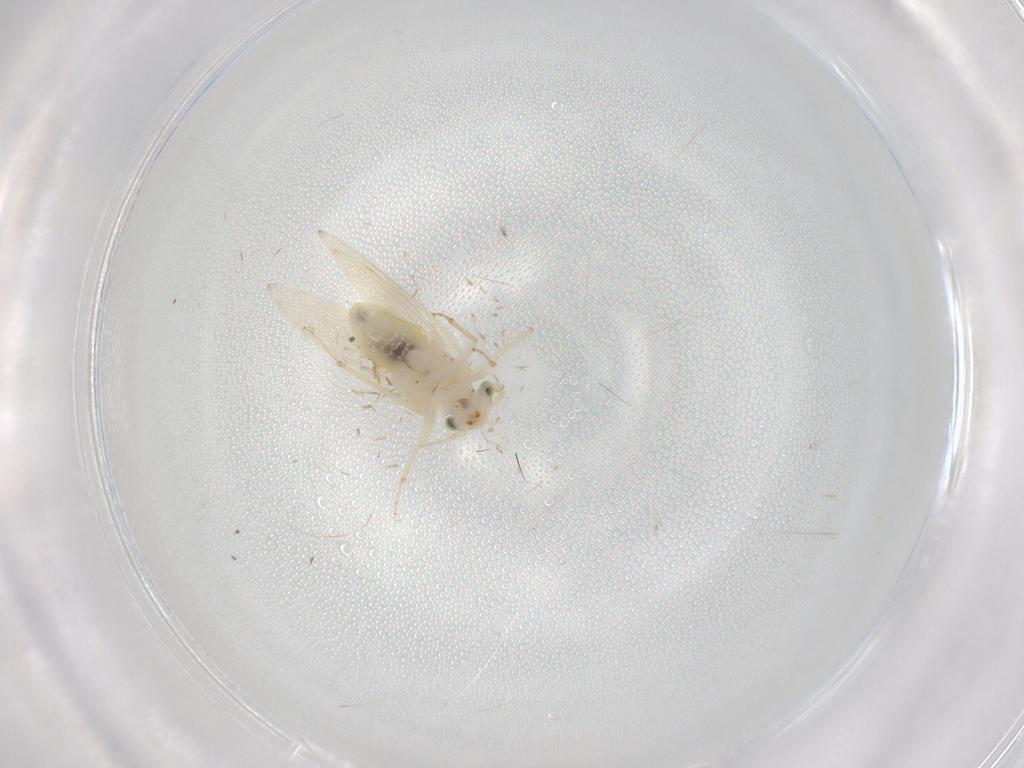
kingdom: Animalia
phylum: Arthropoda
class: Insecta
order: Psocodea
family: Lepidopsocidae
